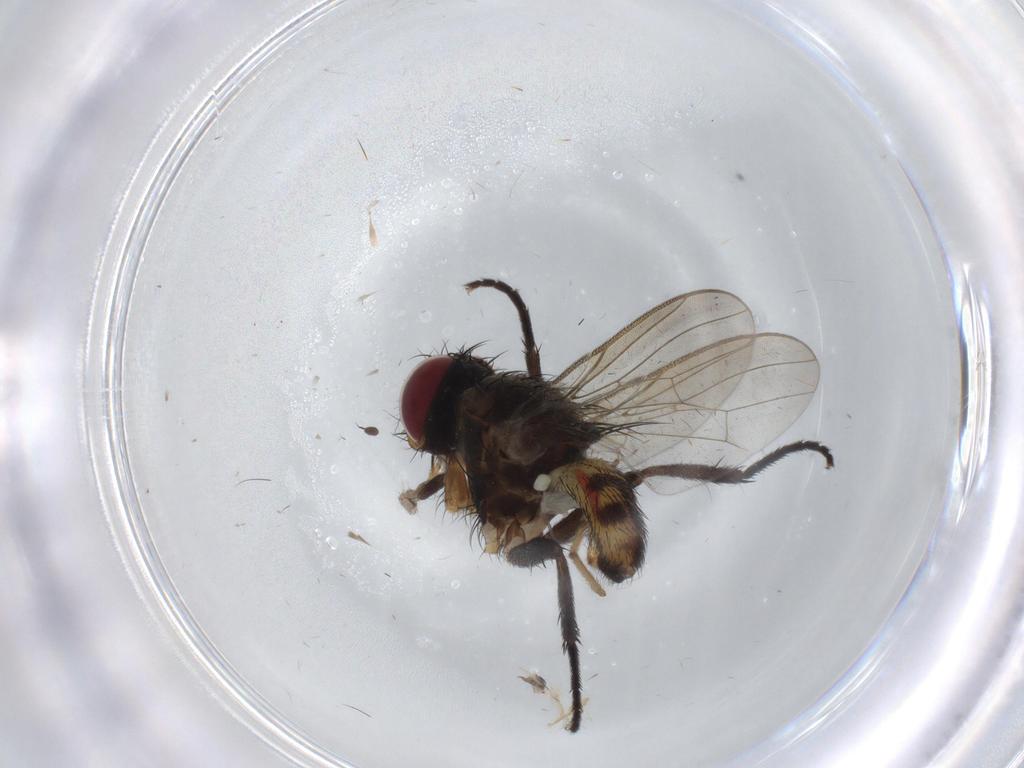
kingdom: Animalia
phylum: Arthropoda
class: Insecta
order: Diptera
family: Anthomyiidae
